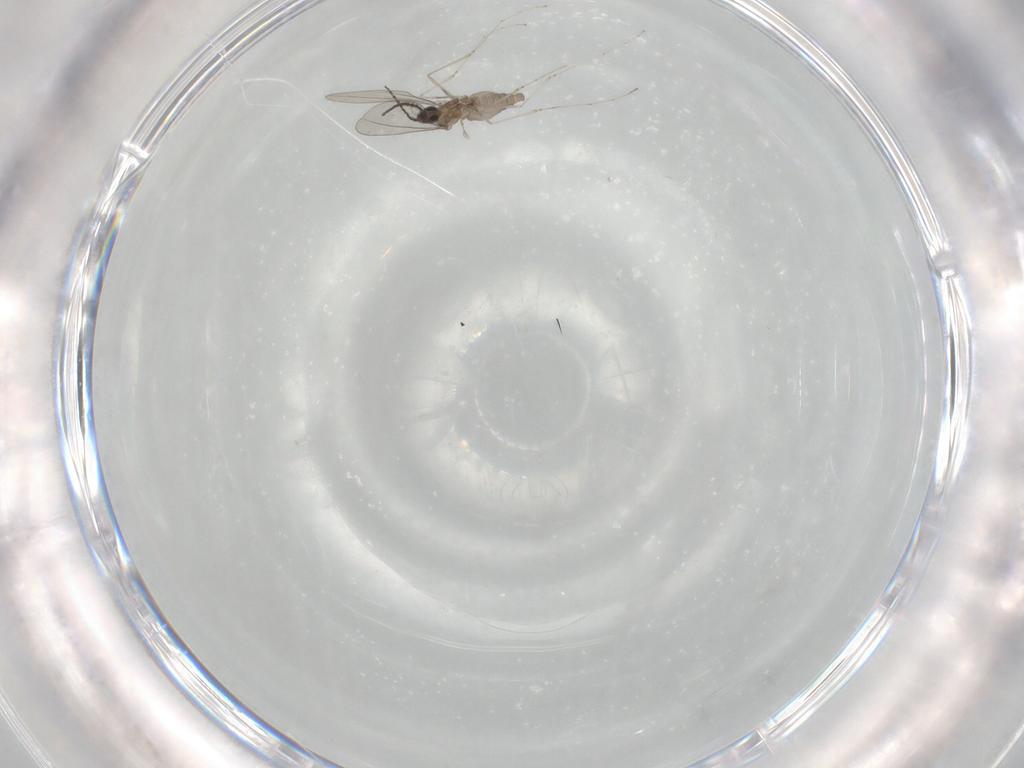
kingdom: Animalia
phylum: Arthropoda
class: Insecta
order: Diptera
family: Cecidomyiidae
